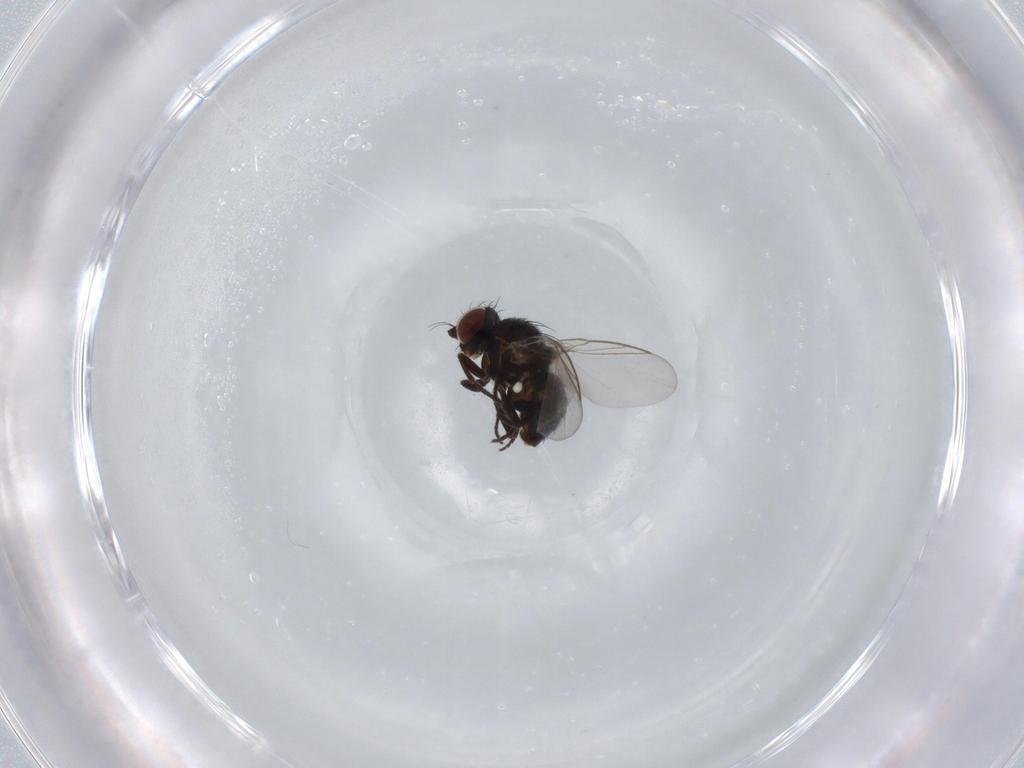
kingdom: Animalia
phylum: Arthropoda
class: Insecta
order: Diptera
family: Agromyzidae
